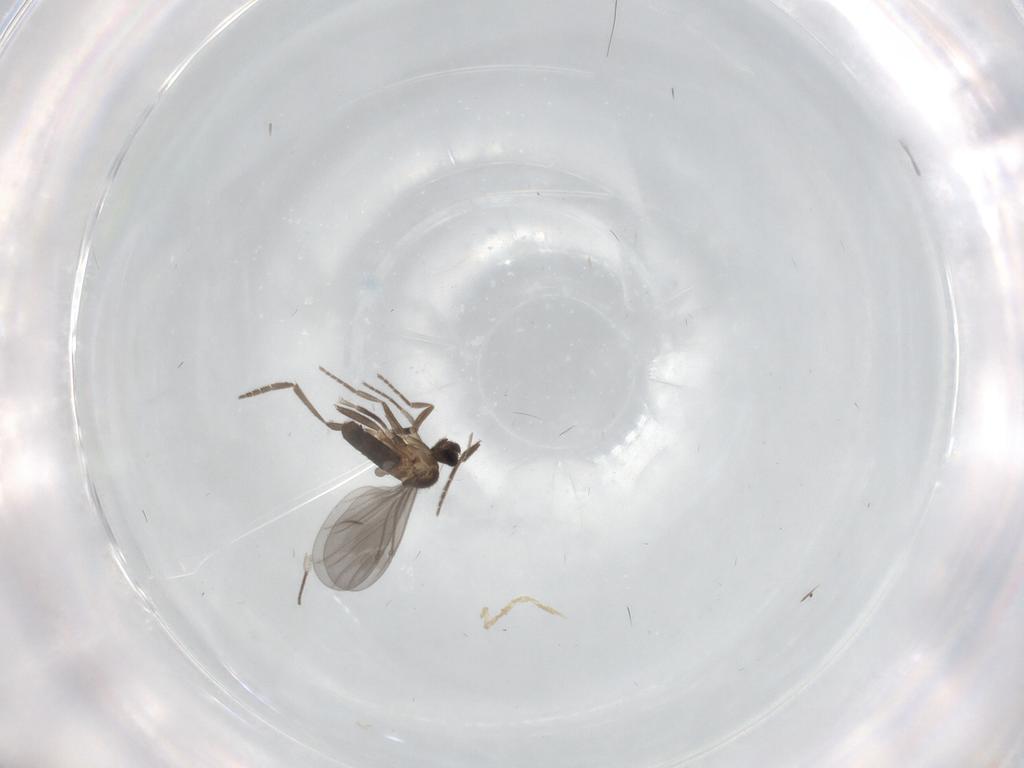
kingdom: Animalia
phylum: Arthropoda
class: Insecta
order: Diptera
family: Phoridae
